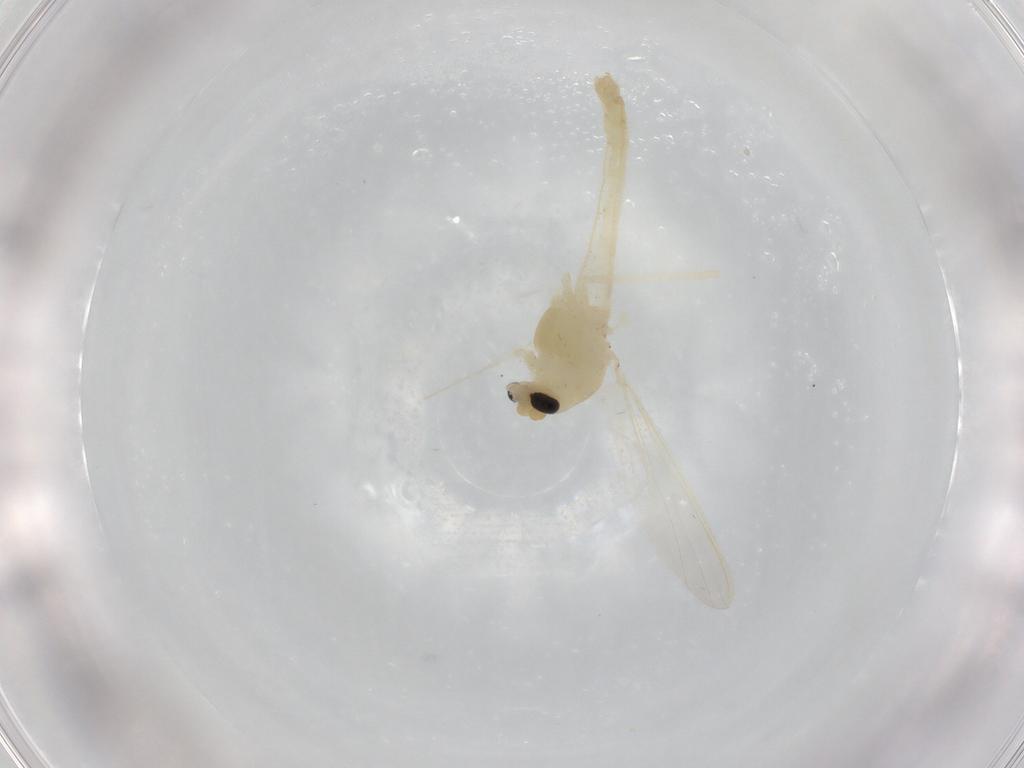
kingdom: Animalia
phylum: Arthropoda
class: Insecta
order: Diptera
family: Chironomidae
